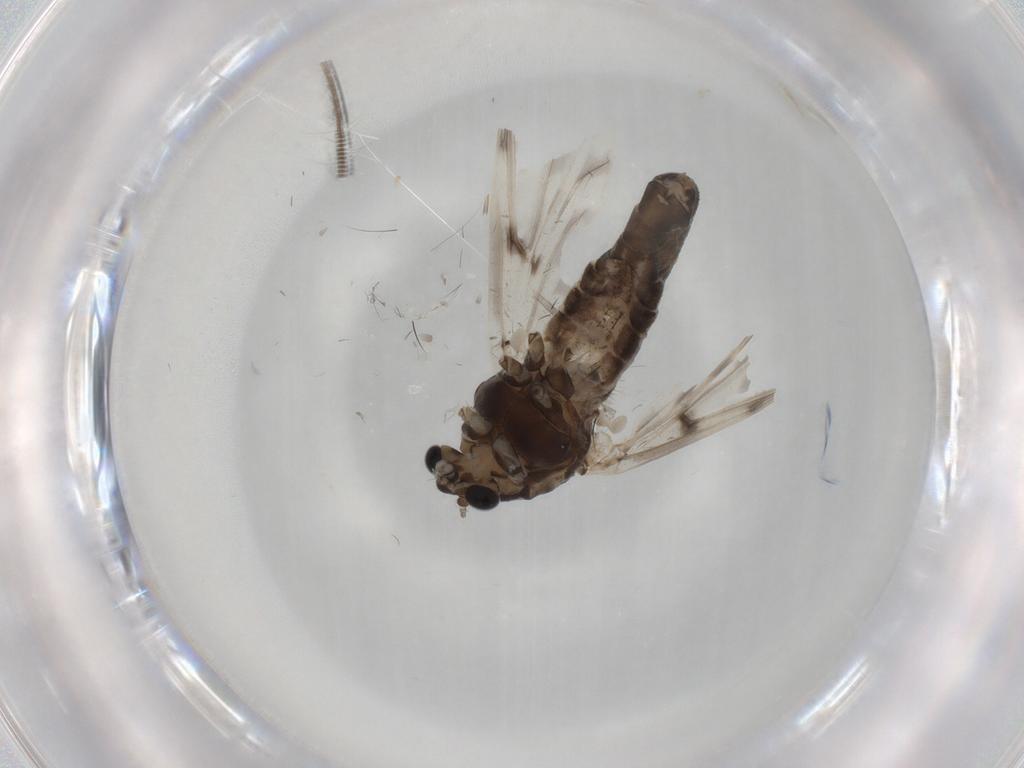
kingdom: Animalia
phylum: Arthropoda
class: Insecta
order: Diptera
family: Chironomidae
